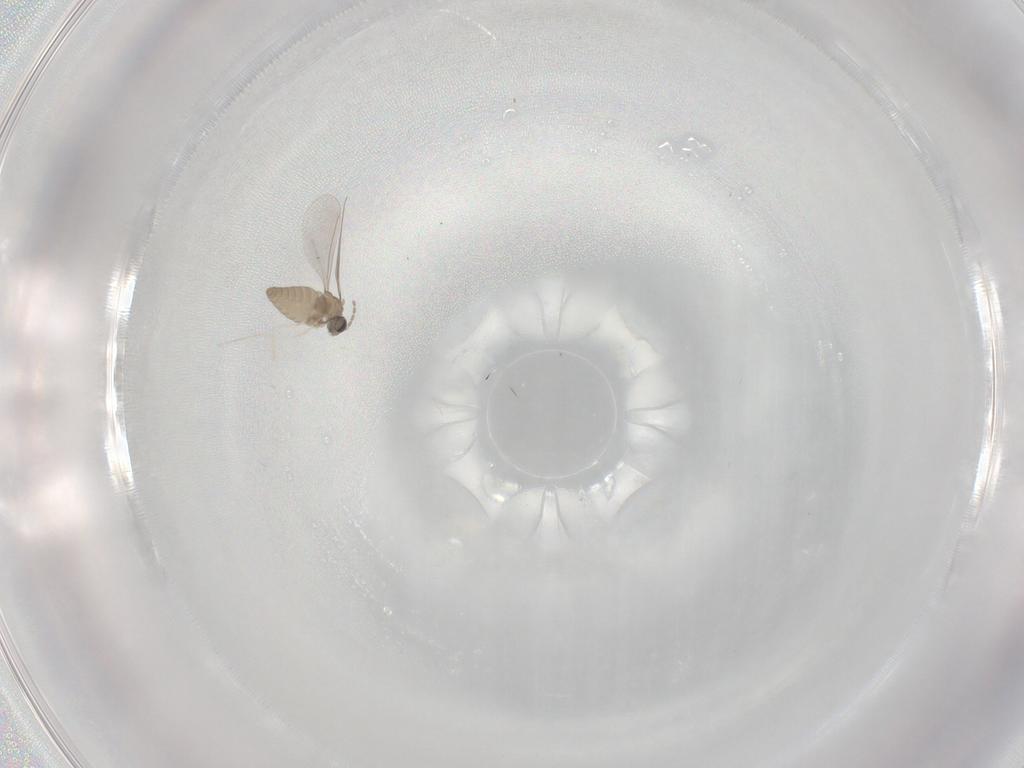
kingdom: Animalia
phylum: Arthropoda
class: Insecta
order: Diptera
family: Cecidomyiidae
